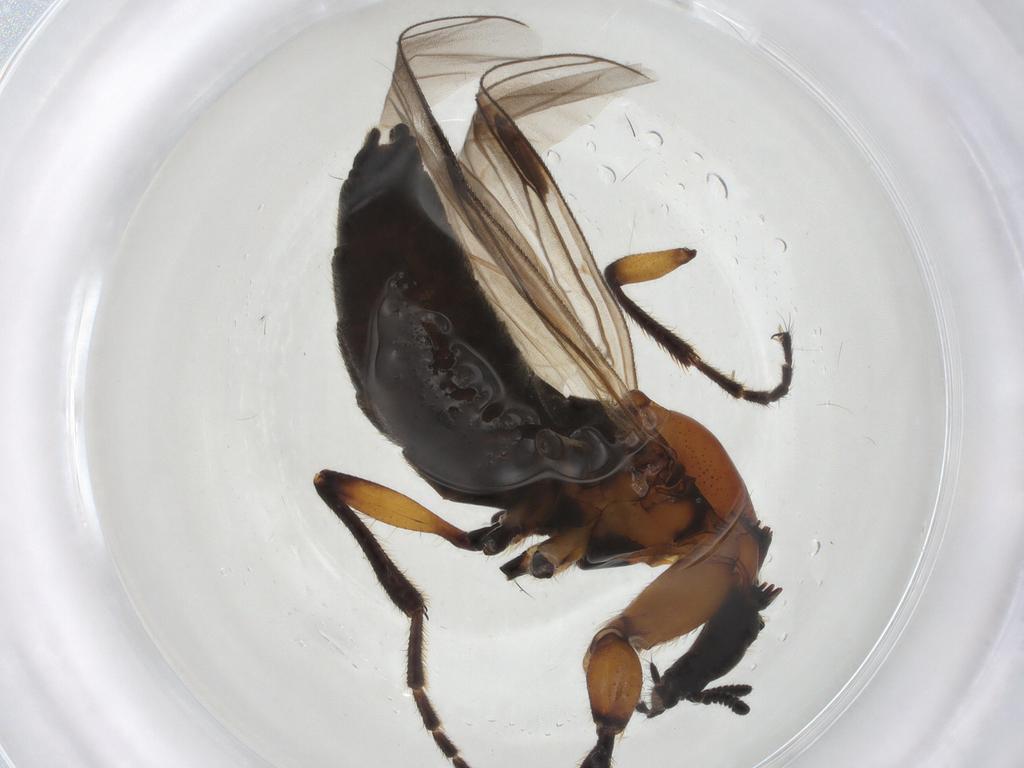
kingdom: Animalia
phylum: Arthropoda
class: Insecta
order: Diptera
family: Bibionidae
